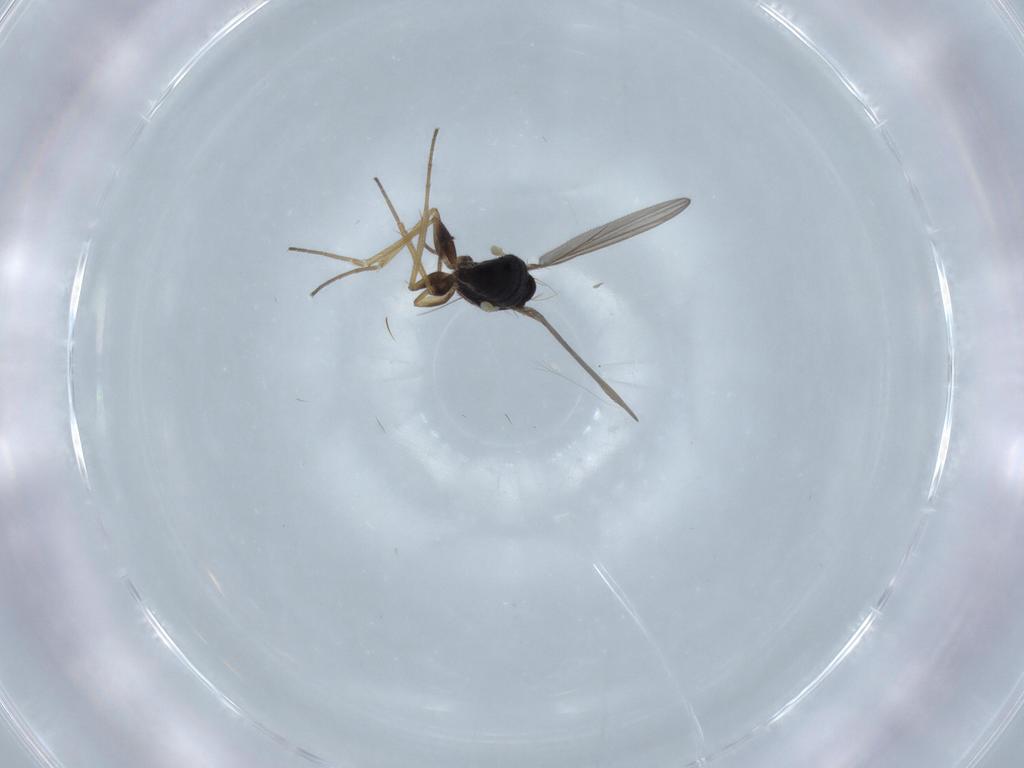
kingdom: Animalia
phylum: Arthropoda
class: Insecta
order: Diptera
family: Dolichopodidae
